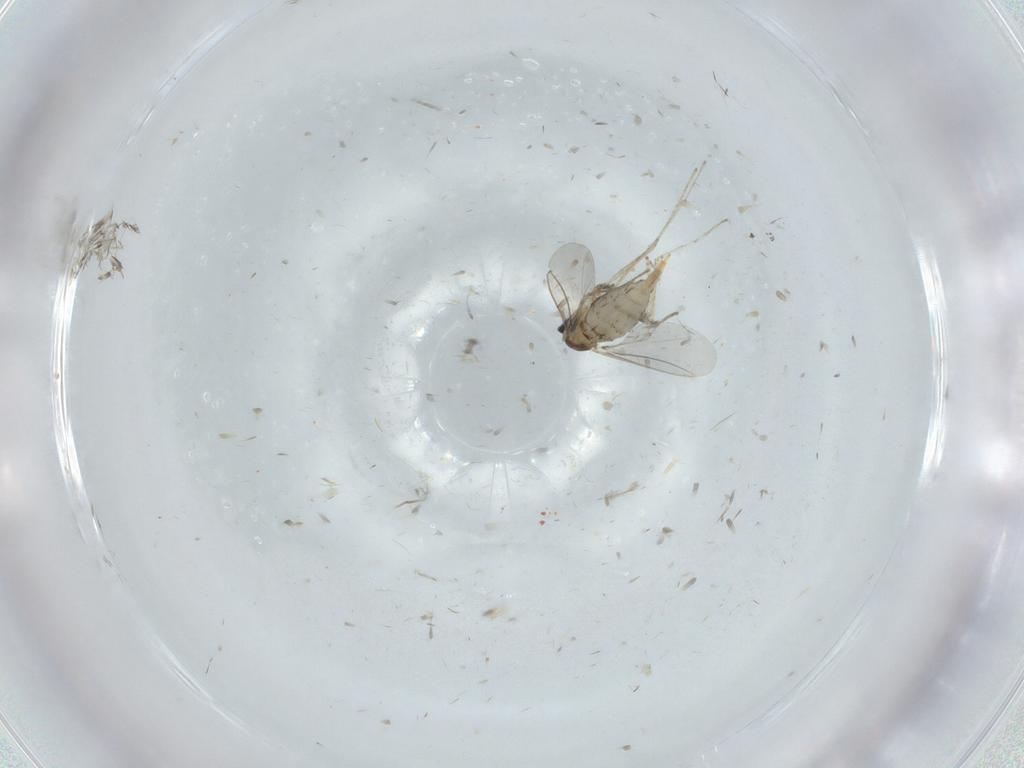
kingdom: Animalia
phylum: Arthropoda
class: Insecta
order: Diptera
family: Cecidomyiidae
